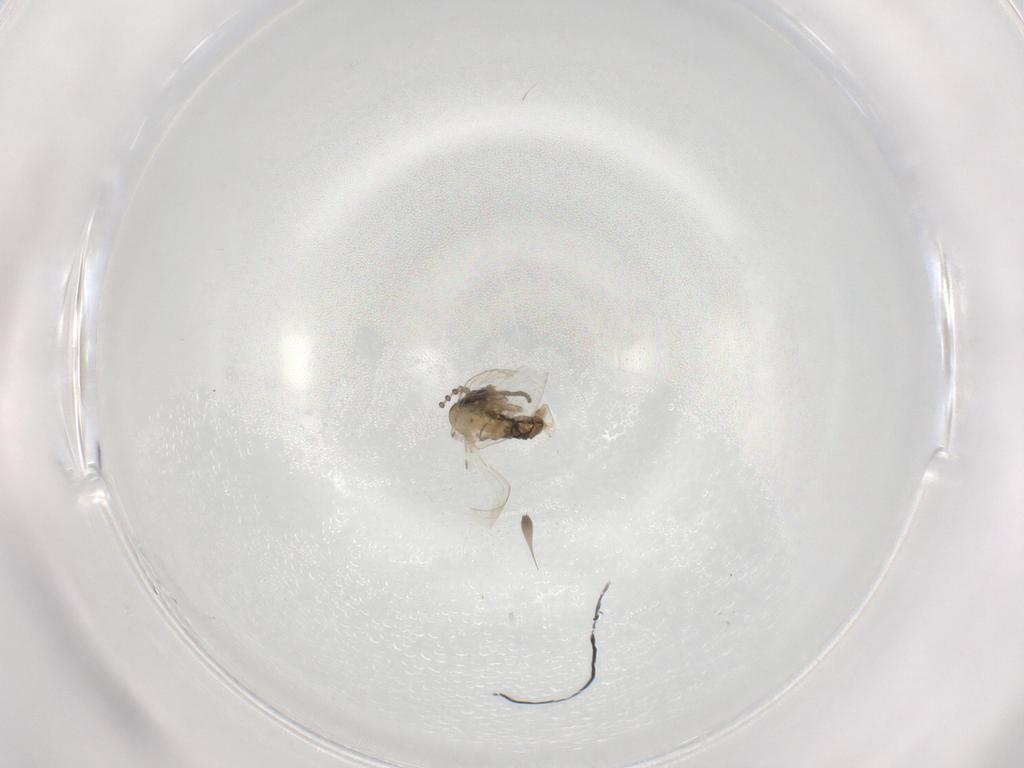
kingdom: Animalia
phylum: Arthropoda
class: Insecta
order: Diptera
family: Psychodidae
